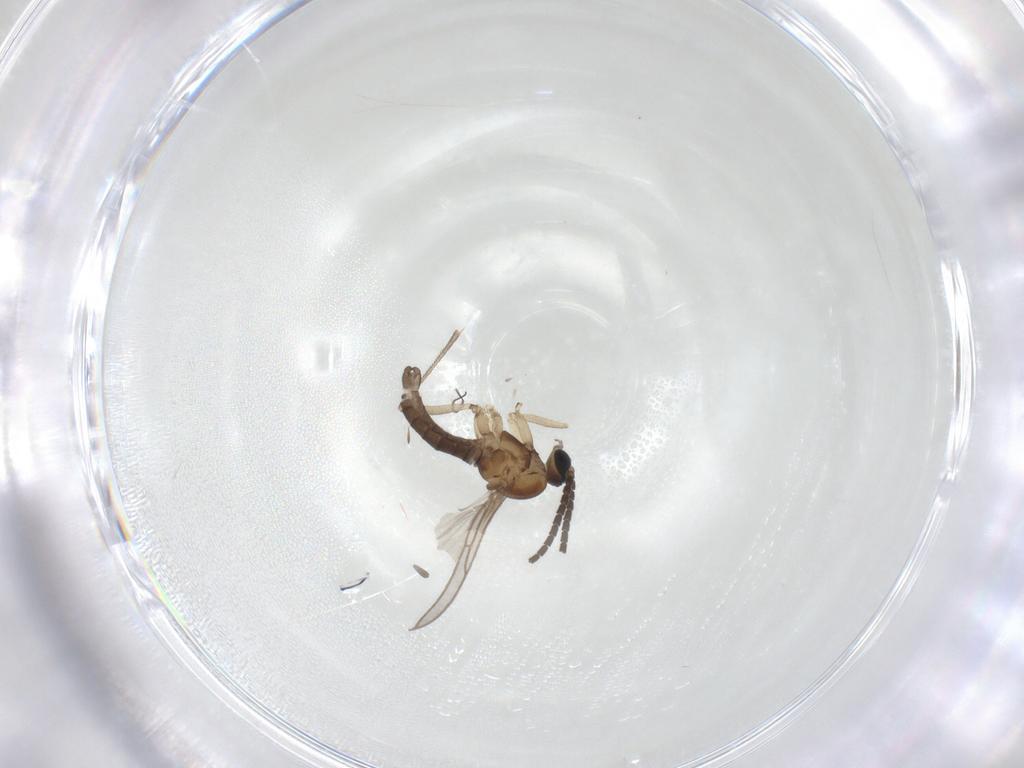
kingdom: Animalia
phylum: Arthropoda
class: Insecta
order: Diptera
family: Sciaridae
